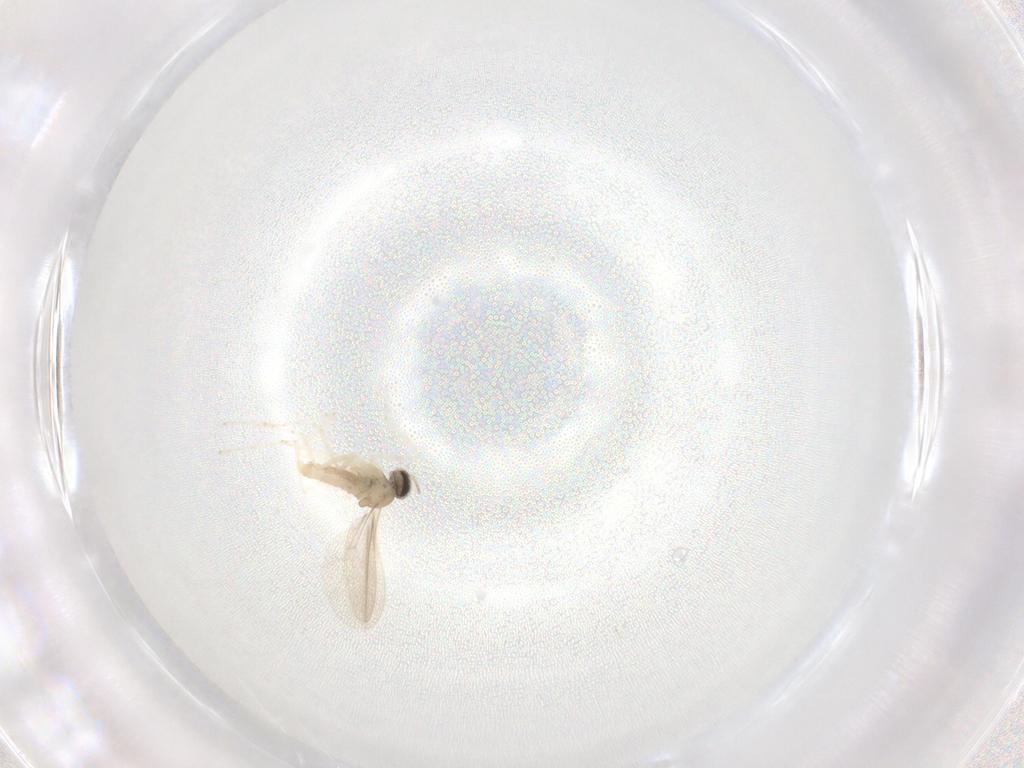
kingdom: Animalia
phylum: Arthropoda
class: Insecta
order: Diptera
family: Cecidomyiidae
